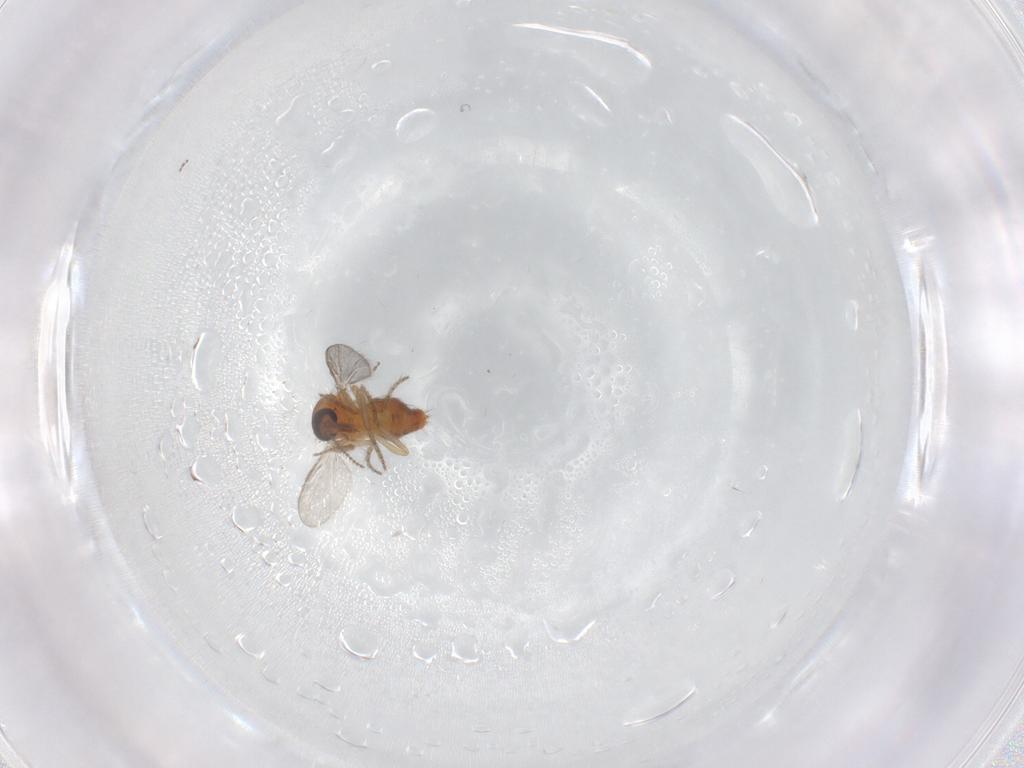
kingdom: Animalia
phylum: Arthropoda
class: Insecta
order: Diptera
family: Ceratopogonidae
